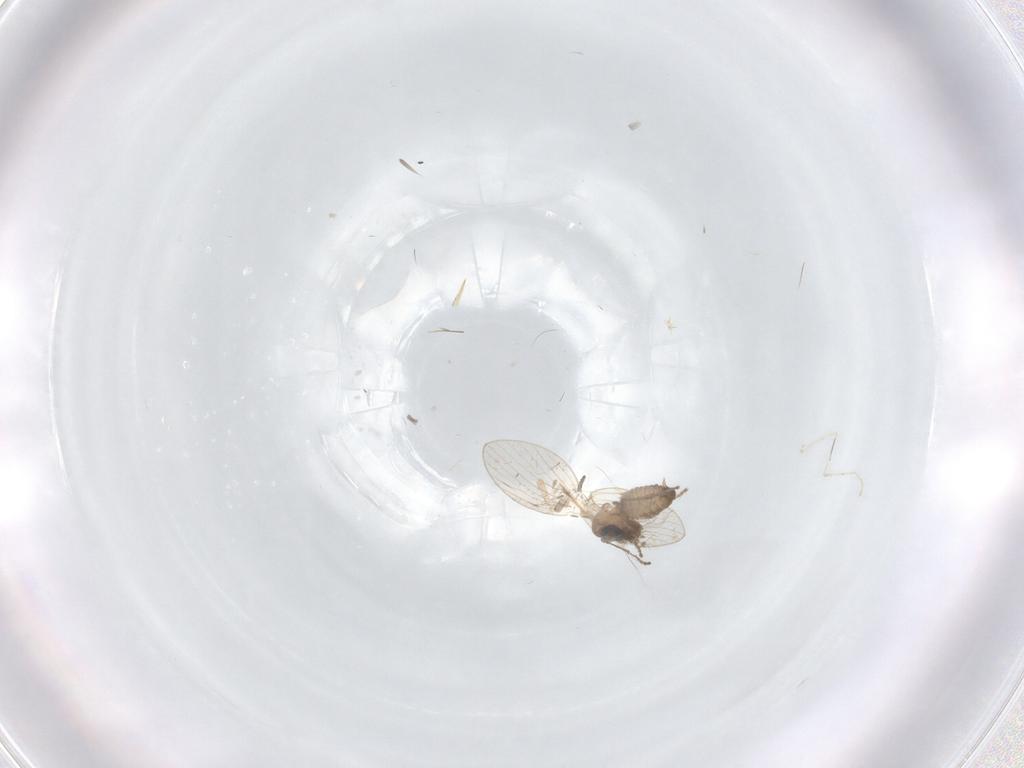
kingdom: Animalia
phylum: Arthropoda
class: Insecta
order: Diptera
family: Psychodidae
